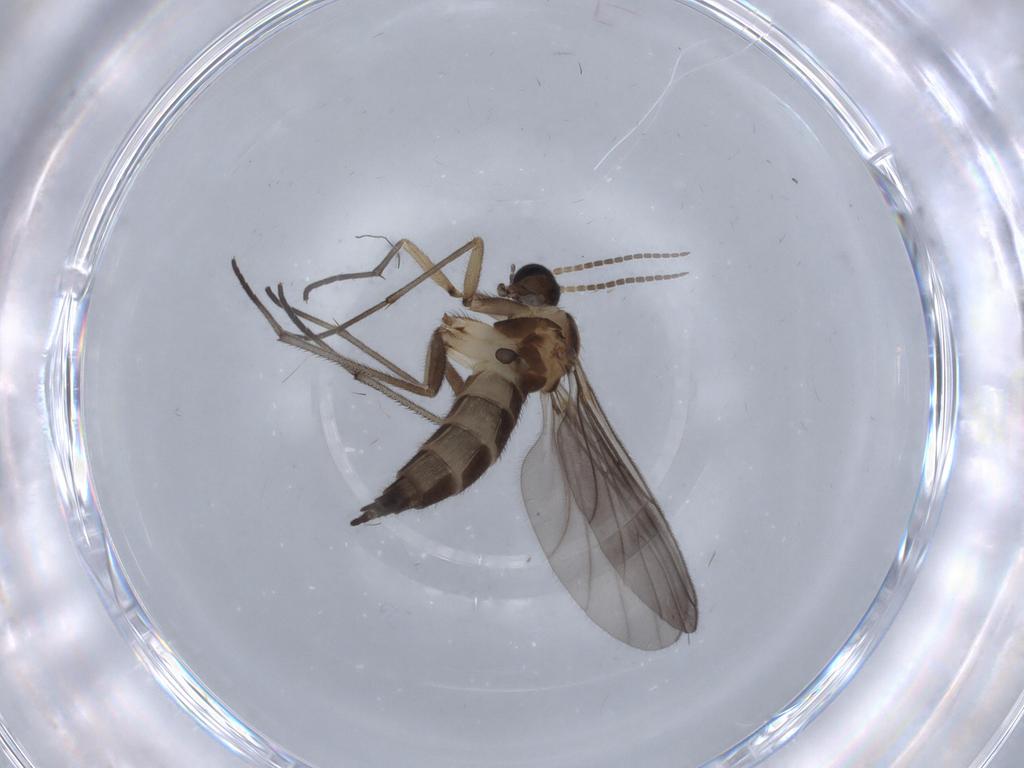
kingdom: Animalia
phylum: Arthropoda
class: Insecta
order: Diptera
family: Sciaridae
